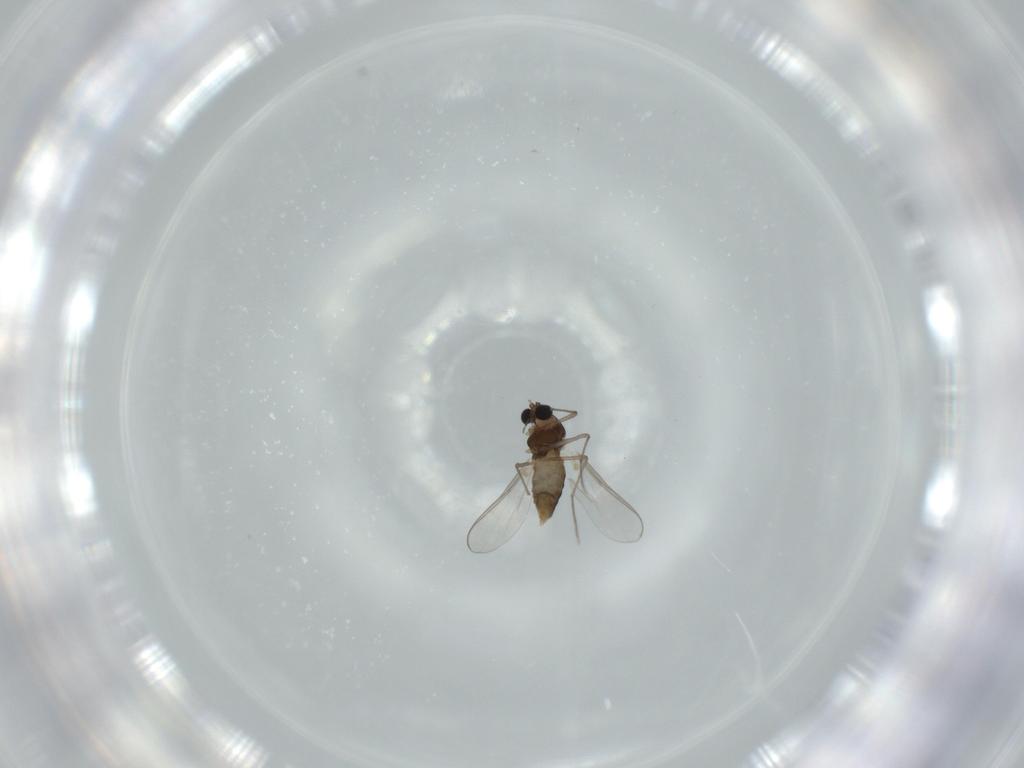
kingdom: Animalia
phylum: Arthropoda
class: Insecta
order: Diptera
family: Chironomidae
